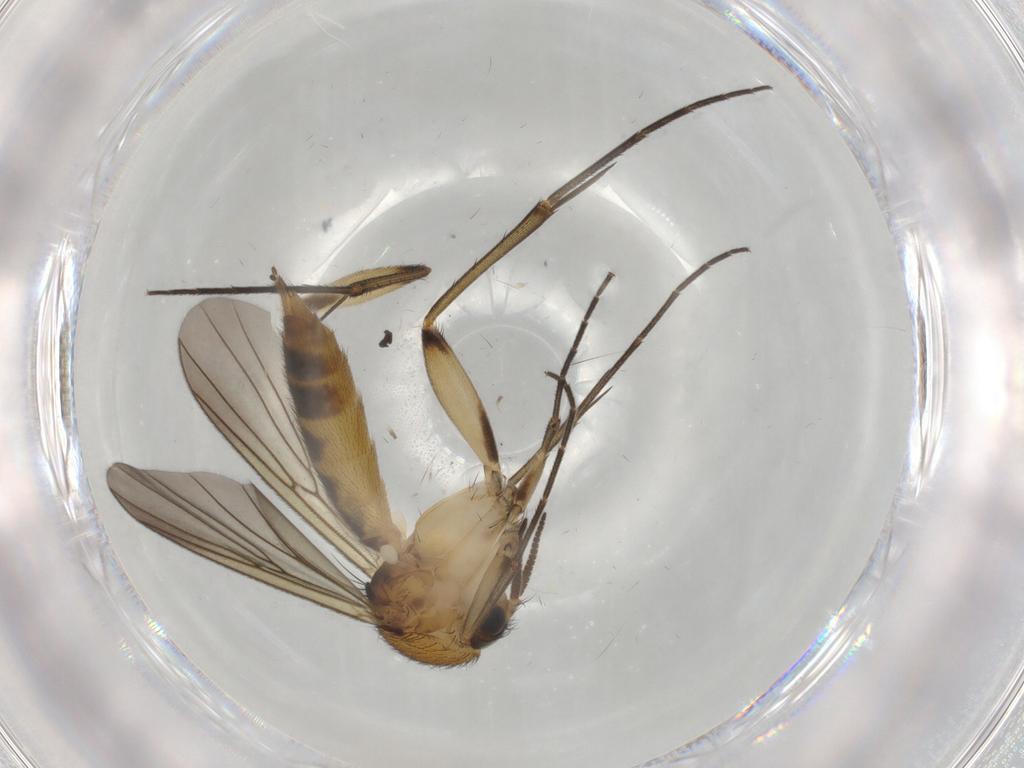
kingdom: Animalia
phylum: Arthropoda
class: Insecta
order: Diptera
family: Mycetophilidae
